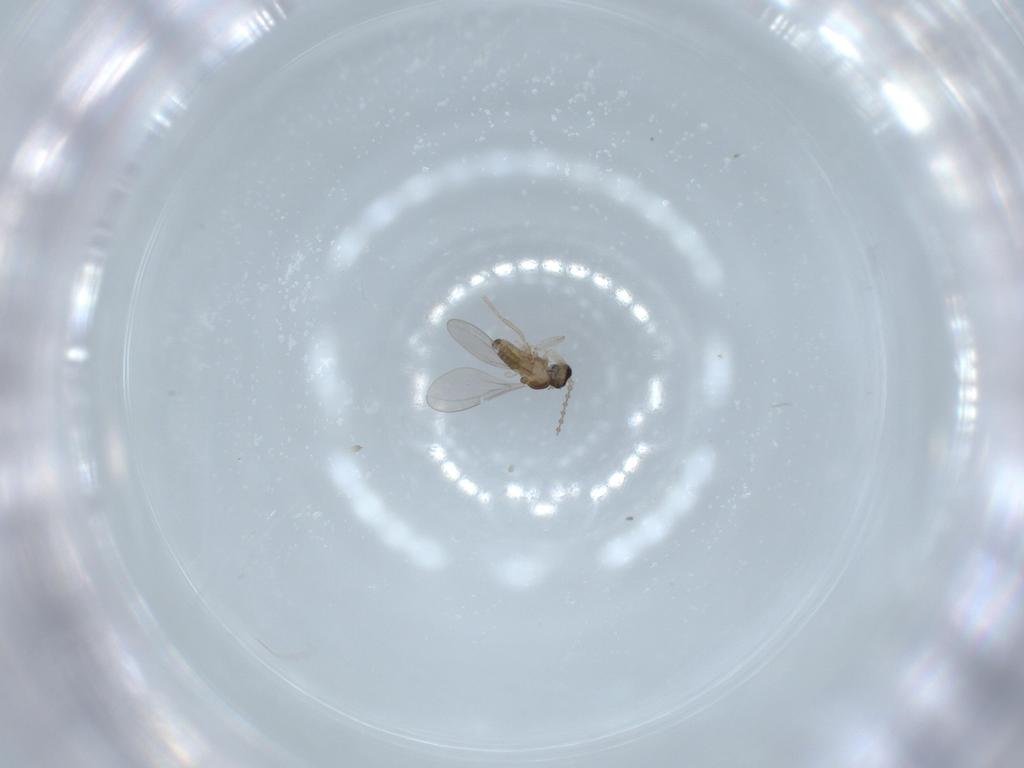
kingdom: Animalia
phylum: Arthropoda
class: Insecta
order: Diptera
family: Cecidomyiidae
